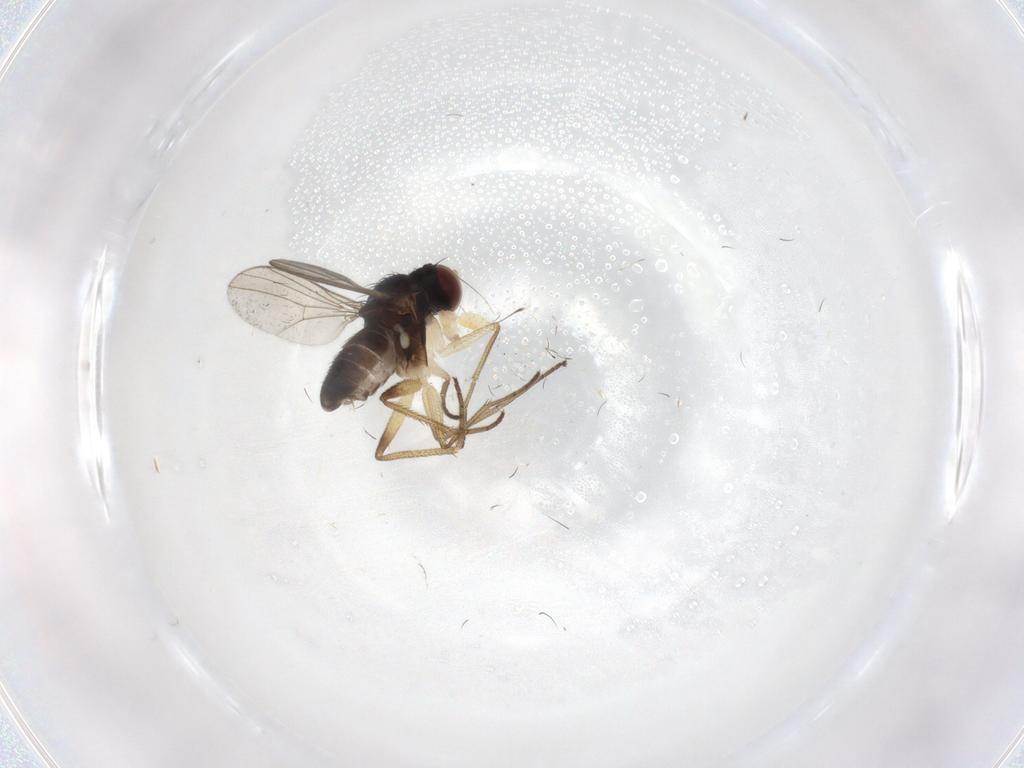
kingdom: Animalia
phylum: Arthropoda
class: Insecta
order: Diptera
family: Dolichopodidae
